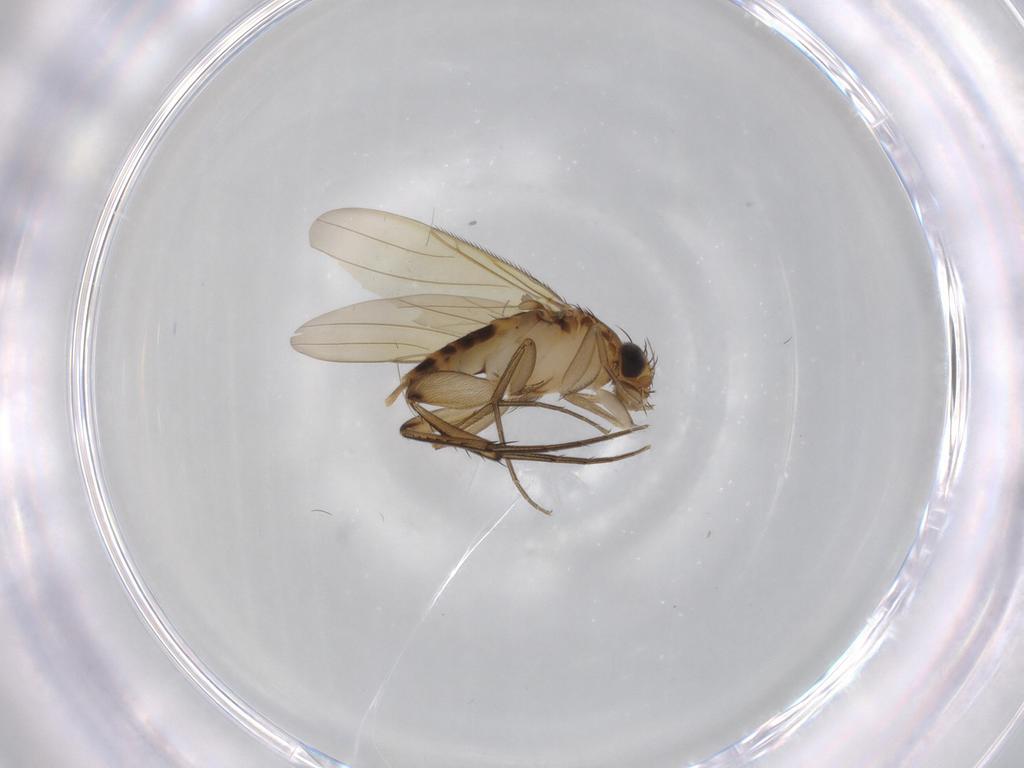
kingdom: Animalia
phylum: Arthropoda
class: Insecta
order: Diptera
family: Phoridae
